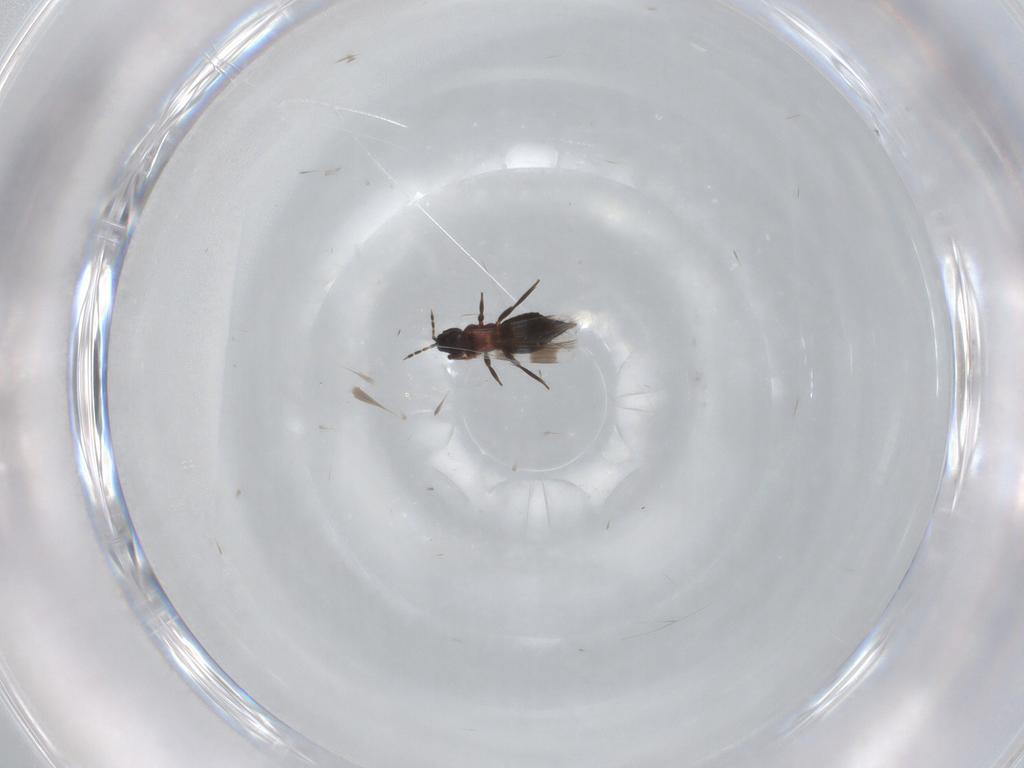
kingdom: Animalia
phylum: Arthropoda
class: Insecta
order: Thysanoptera
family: Aeolothripidae
